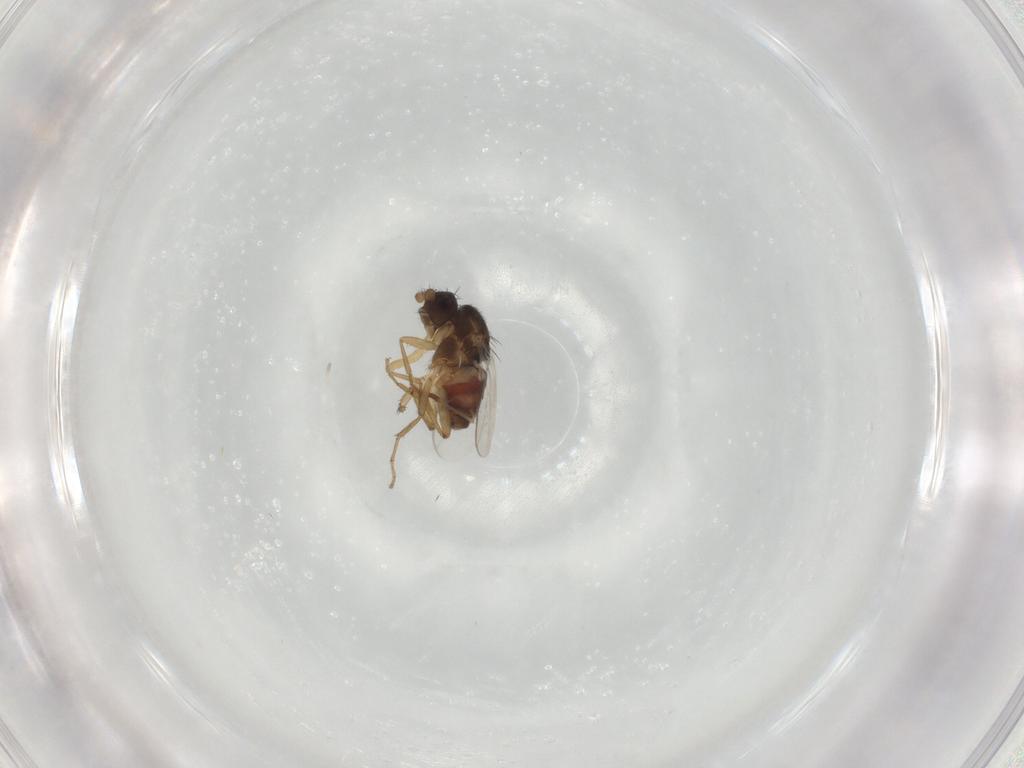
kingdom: Animalia
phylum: Arthropoda
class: Insecta
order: Diptera
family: Sphaeroceridae
